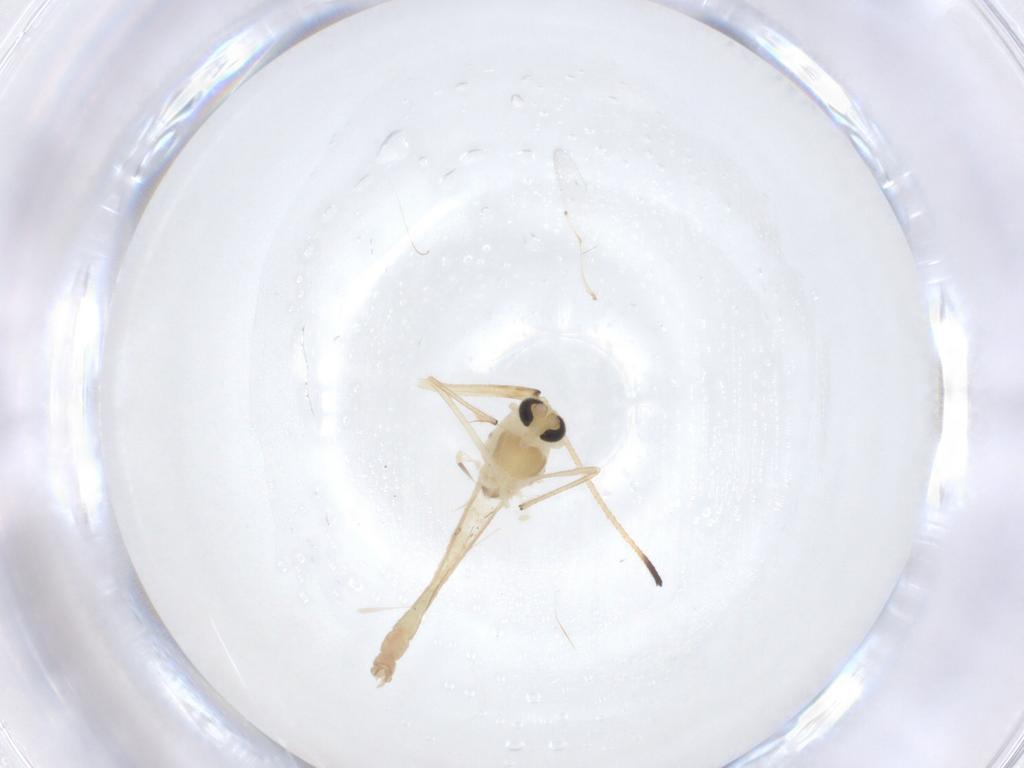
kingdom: Animalia
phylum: Arthropoda
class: Insecta
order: Diptera
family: Chironomidae
